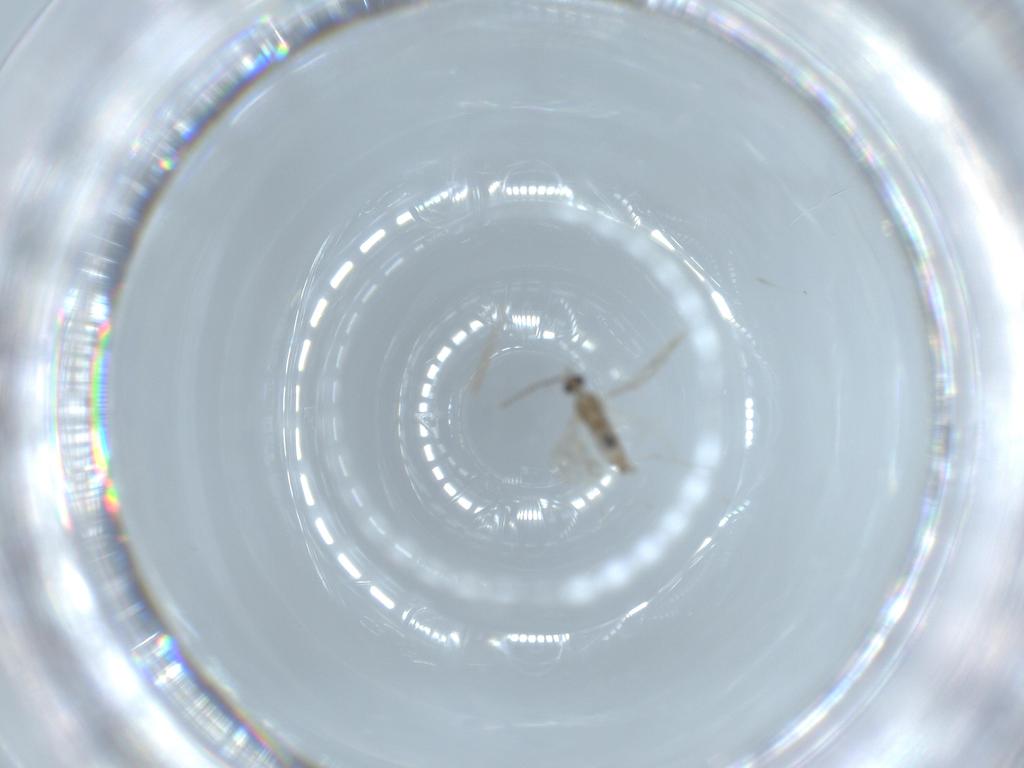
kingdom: Animalia
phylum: Arthropoda
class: Insecta
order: Diptera
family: Cecidomyiidae
